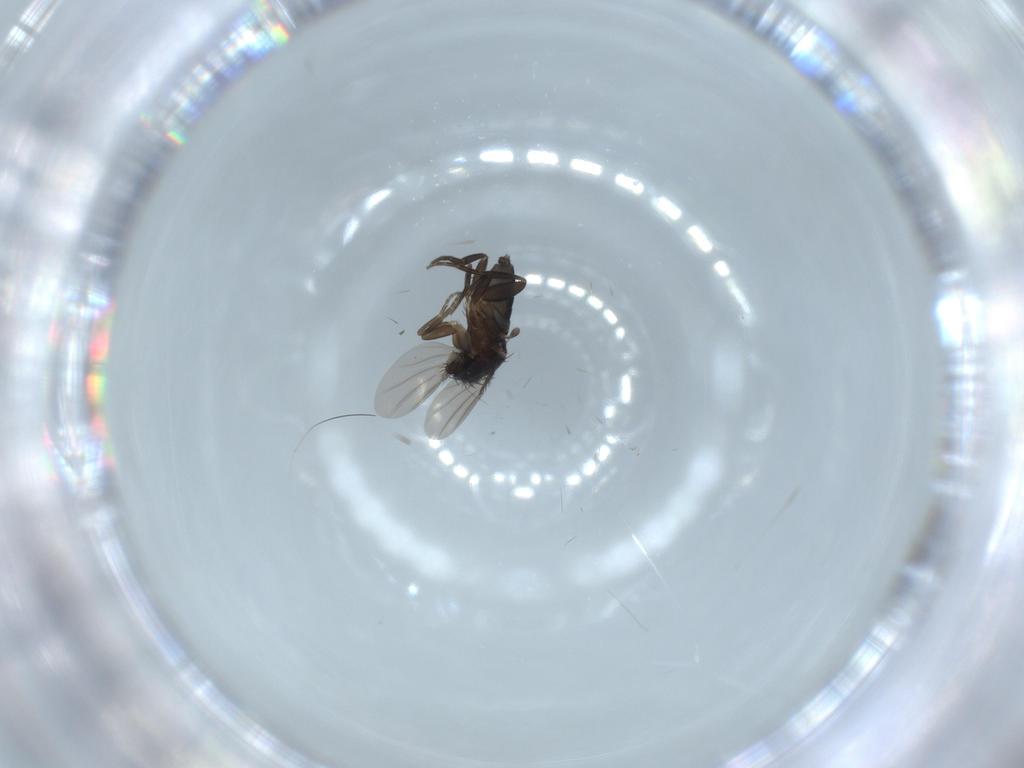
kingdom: Animalia
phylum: Arthropoda
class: Insecta
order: Diptera
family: Phoridae
